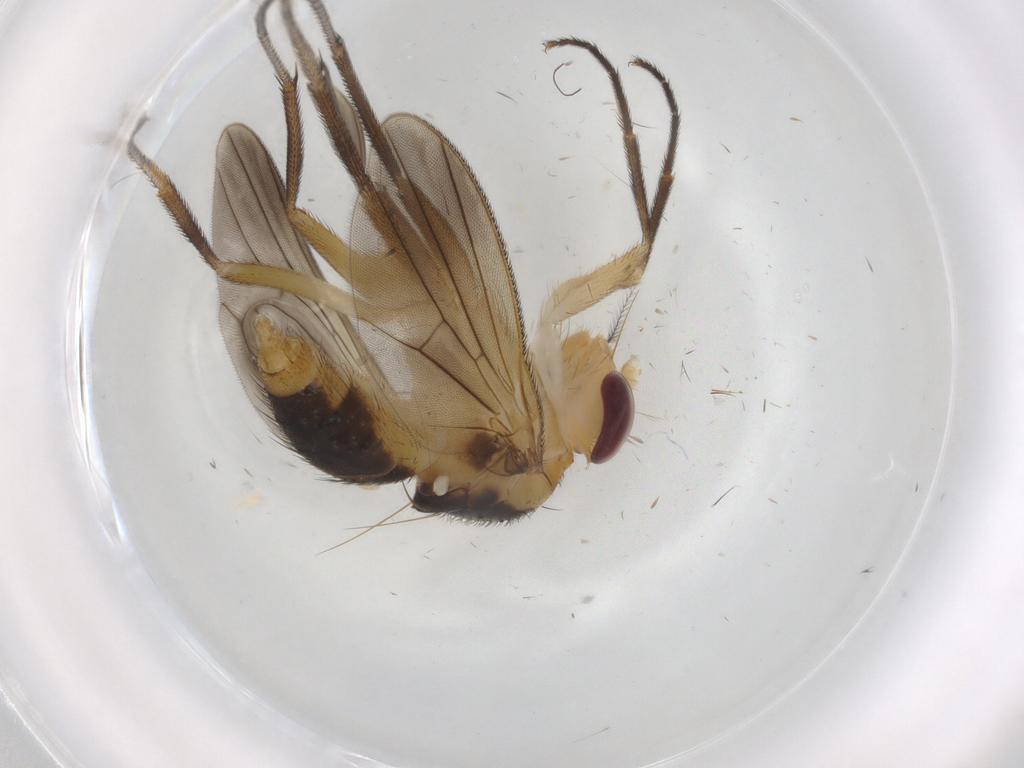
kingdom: Animalia
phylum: Arthropoda
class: Insecta
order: Diptera
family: Clusiidae
